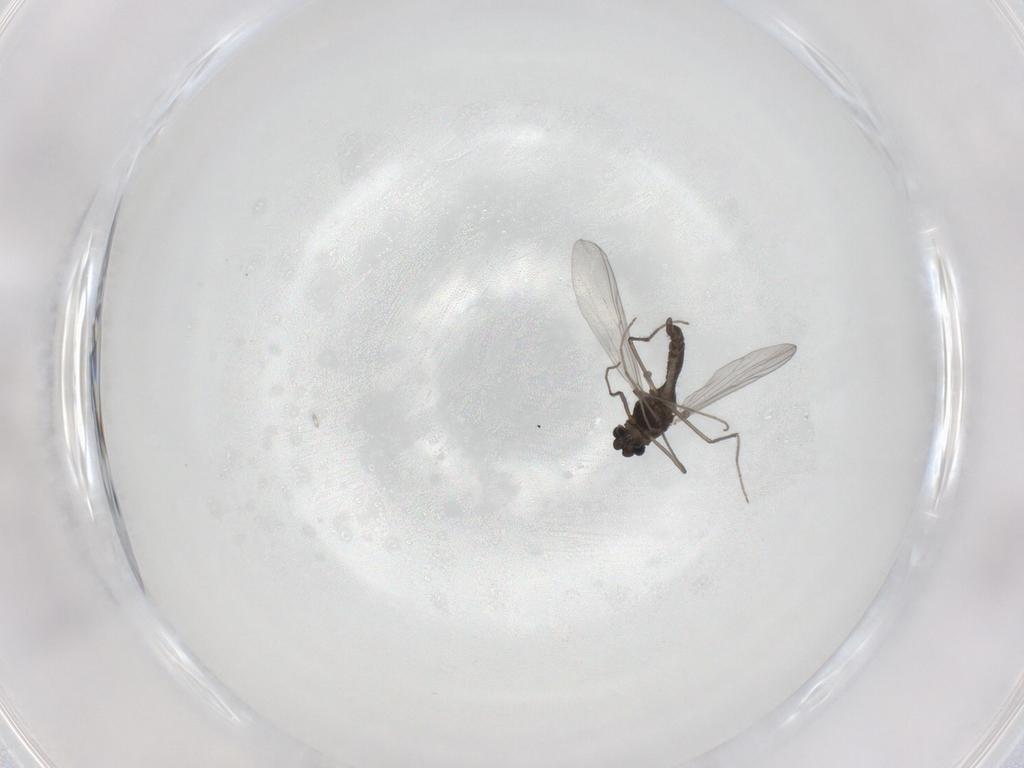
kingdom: Animalia
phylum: Arthropoda
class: Insecta
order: Diptera
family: Chironomidae
